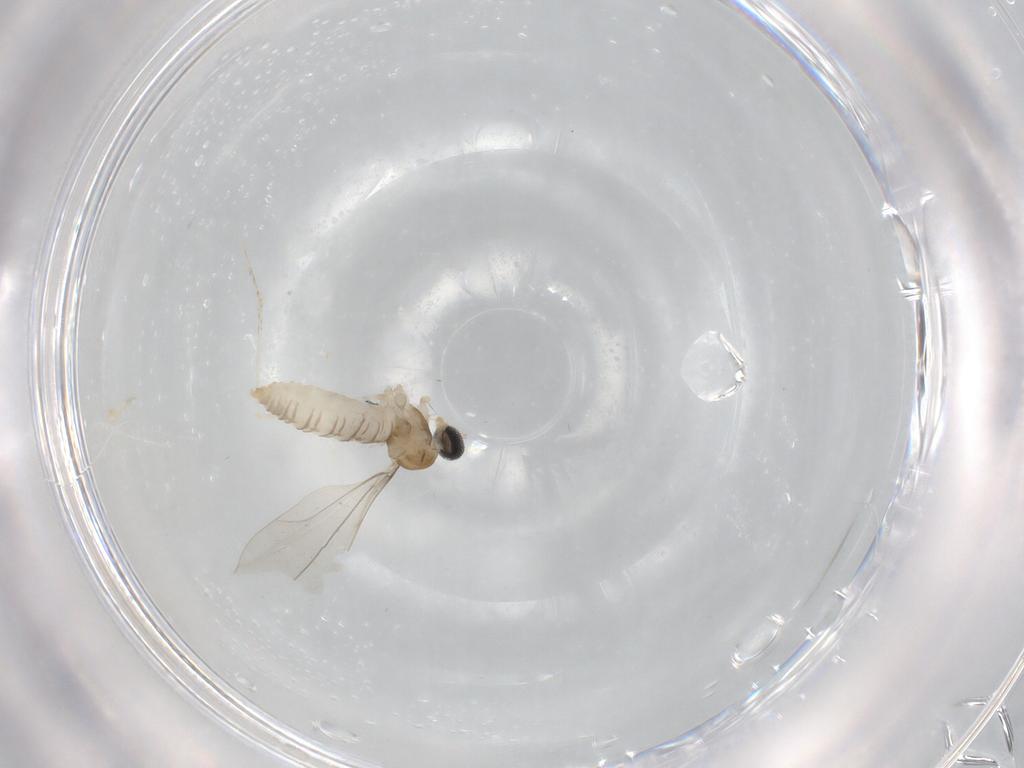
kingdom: Animalia
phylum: Arthropoda
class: Insecta
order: Diptera
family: Cecidomyiidae
